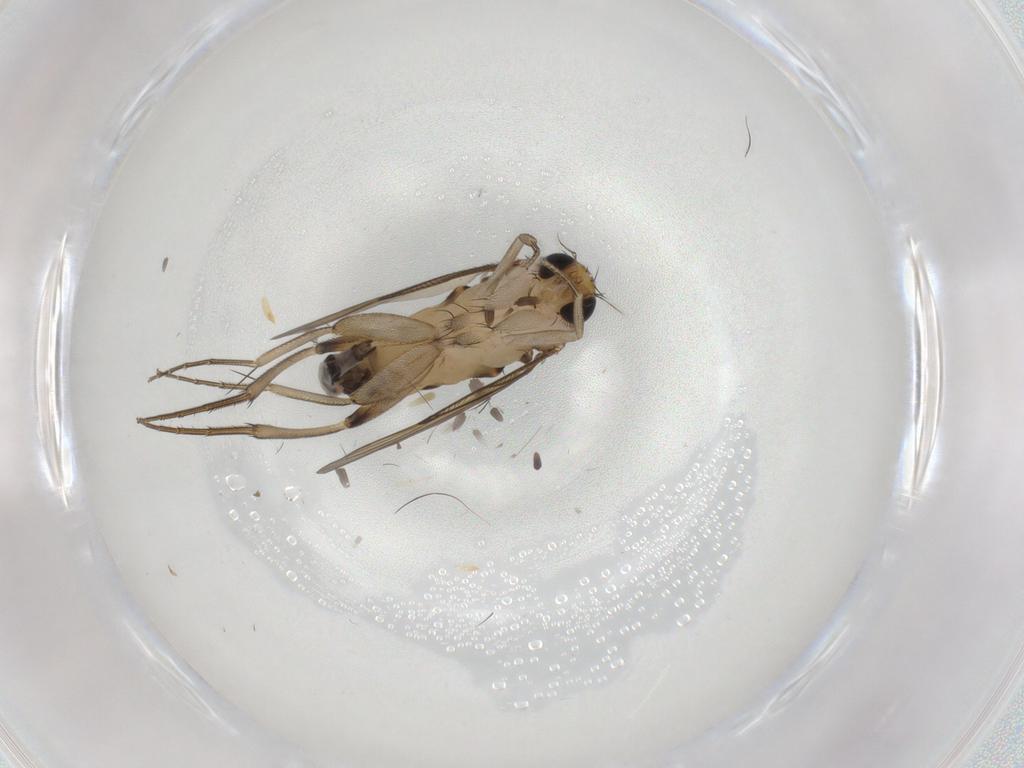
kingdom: Animalia
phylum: Arthropoda
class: Insecta
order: Diptera
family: Phoridae
